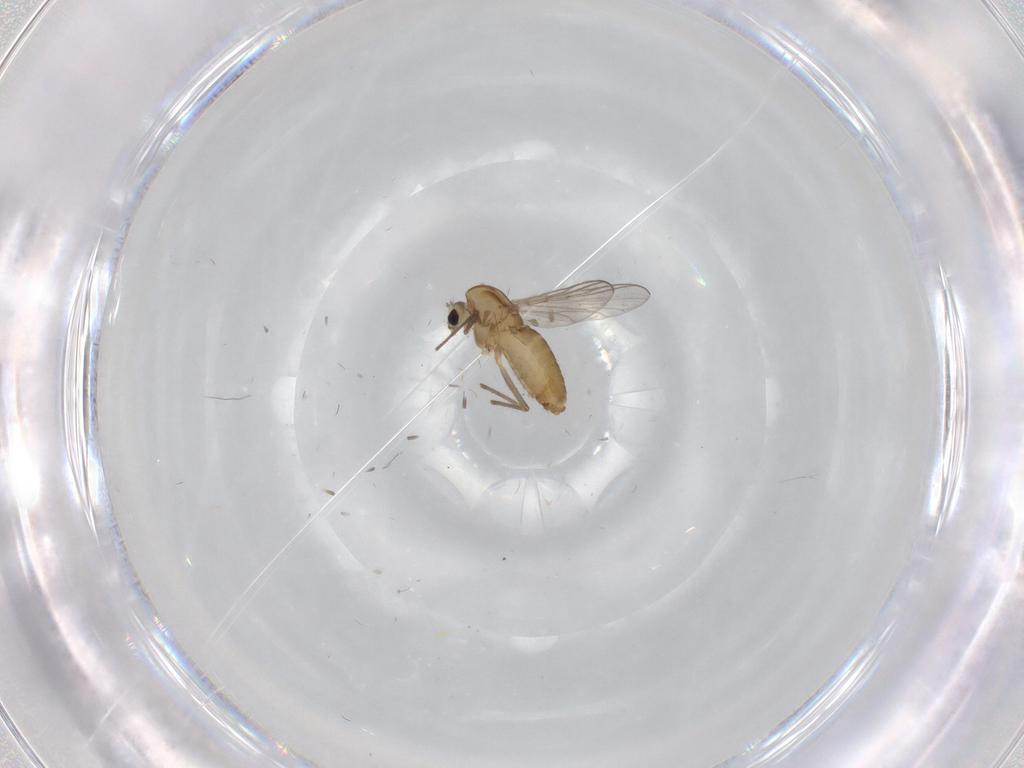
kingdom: Animalia
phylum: Arthropoda
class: Insecta
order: Diptera
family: Chironomidae
